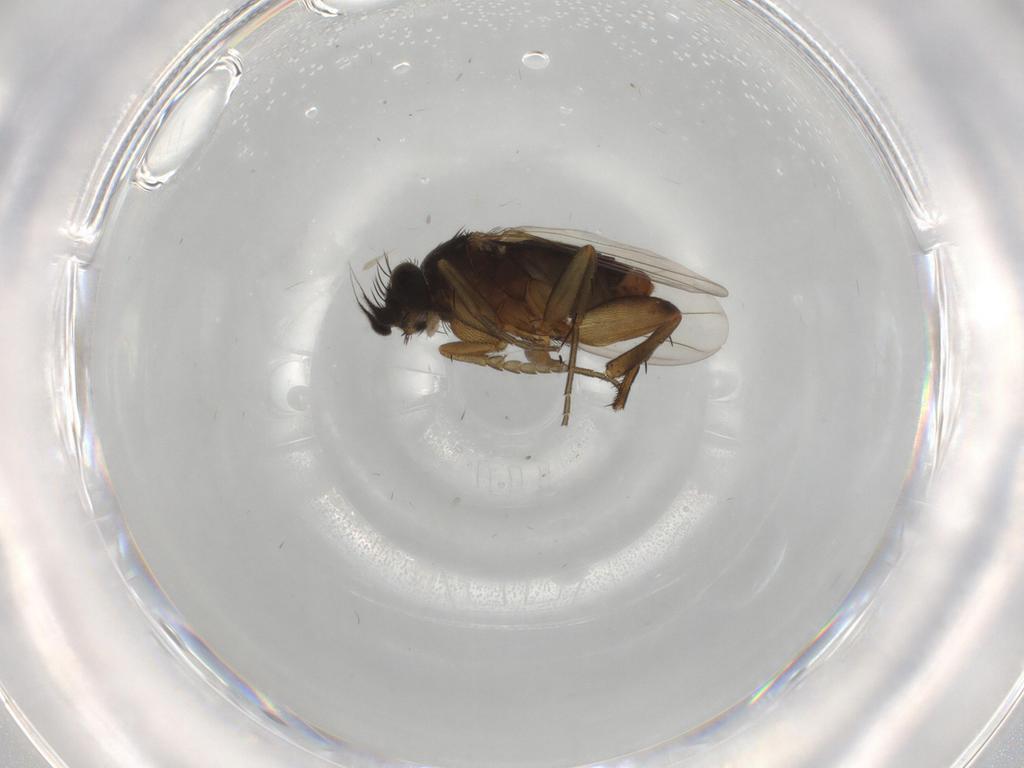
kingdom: Animalia
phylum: Arthropoda
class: Insecta
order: Diptera
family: Phoridae
